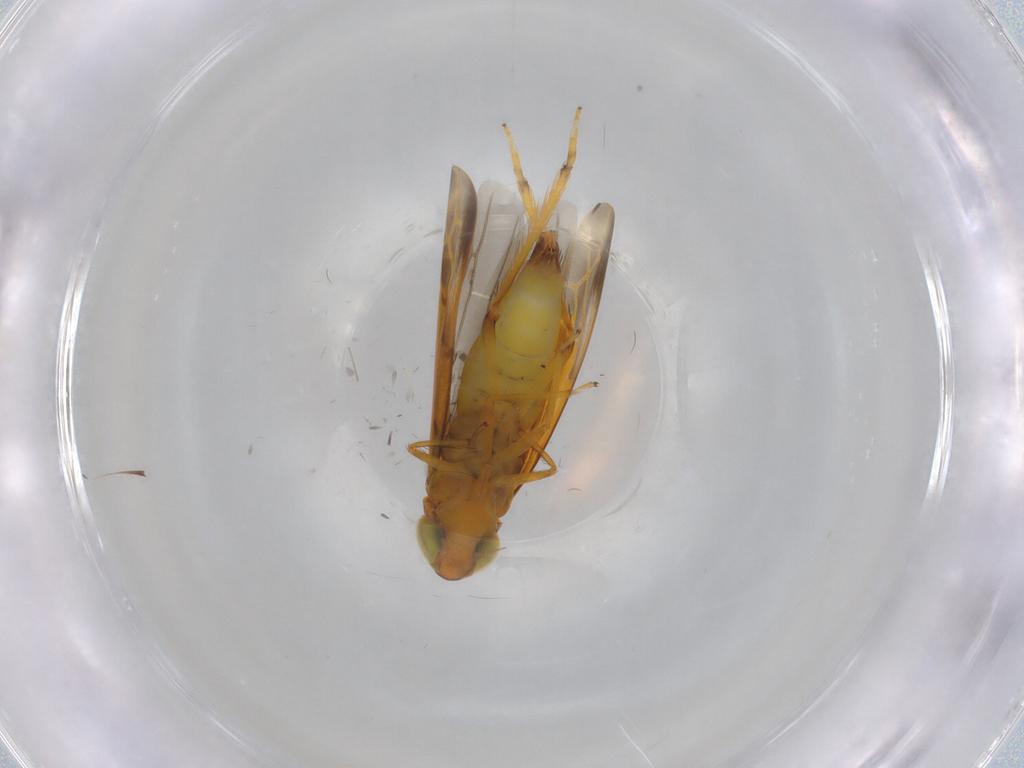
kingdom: Animalia
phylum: Arthropoda
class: Insecta
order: Hemiptera
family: Cicadellidae
